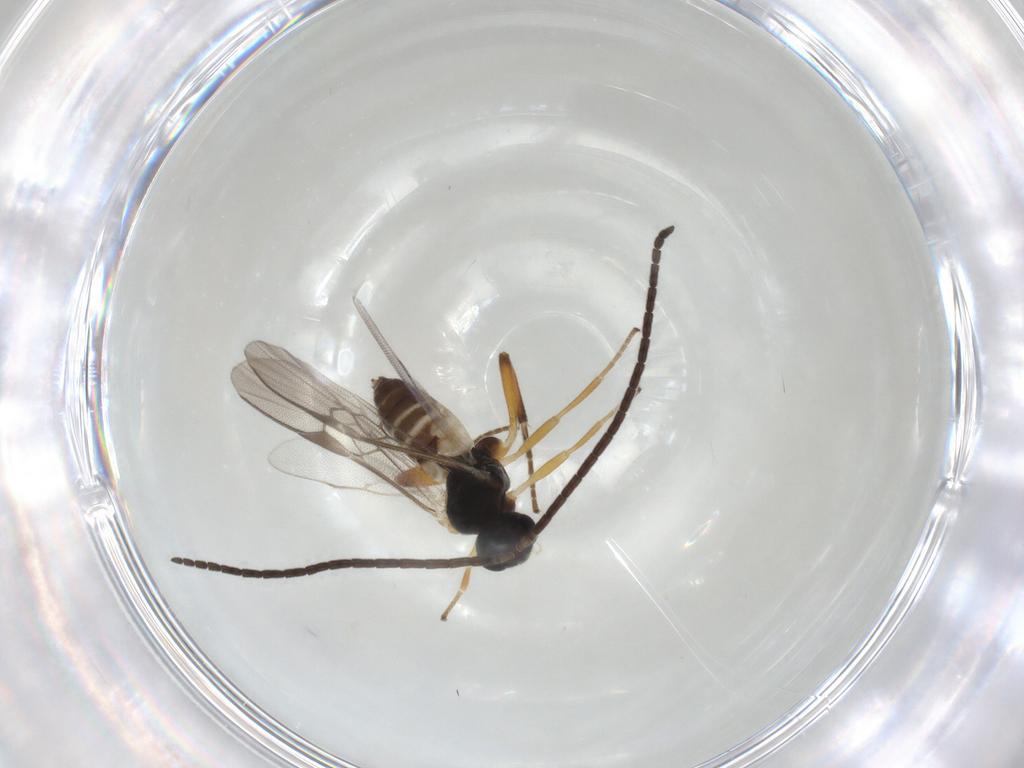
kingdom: Animalia
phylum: Arthropoda
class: Insecta
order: Hymenoptera
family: Braconidae
